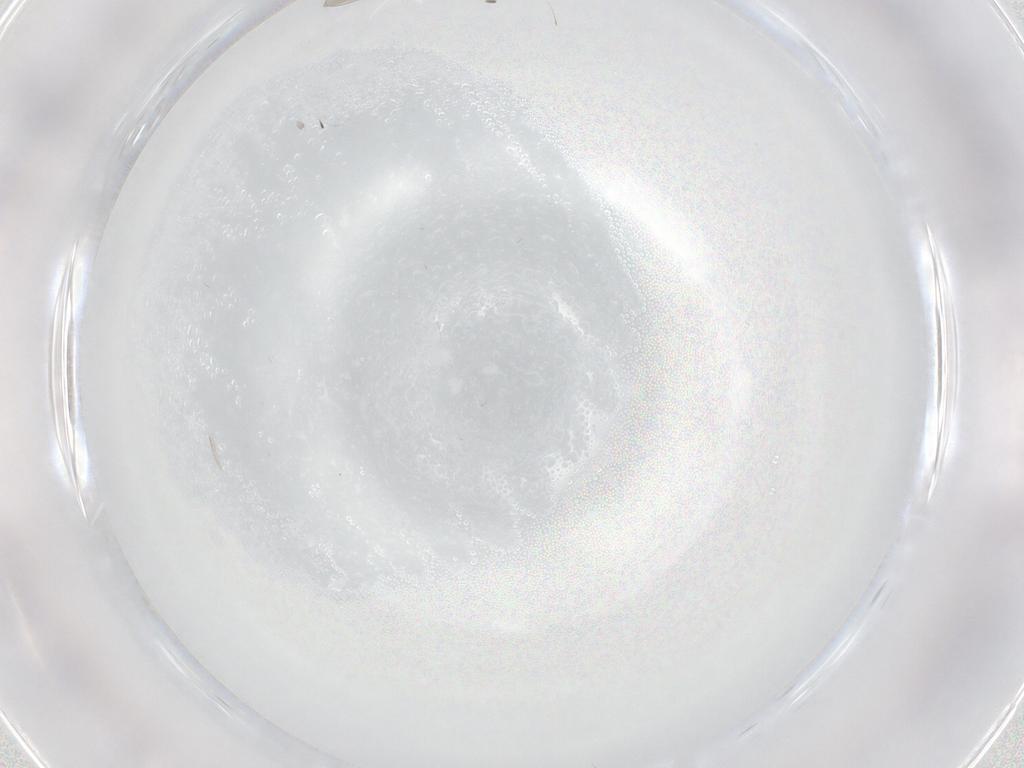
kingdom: Animalia
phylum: Arthropoda
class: Insecta
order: Diptera
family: Cecidomyiidae
